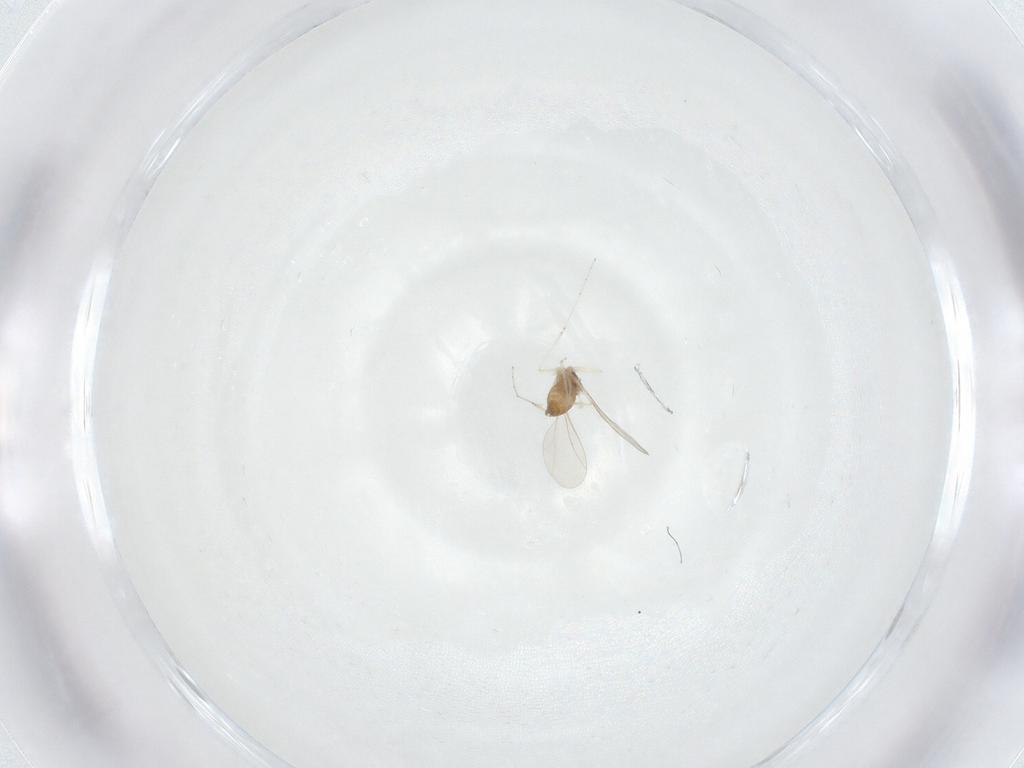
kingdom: Animalia
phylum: Arthropoda
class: Insecta
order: Diptera
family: Cecidomyiidae
